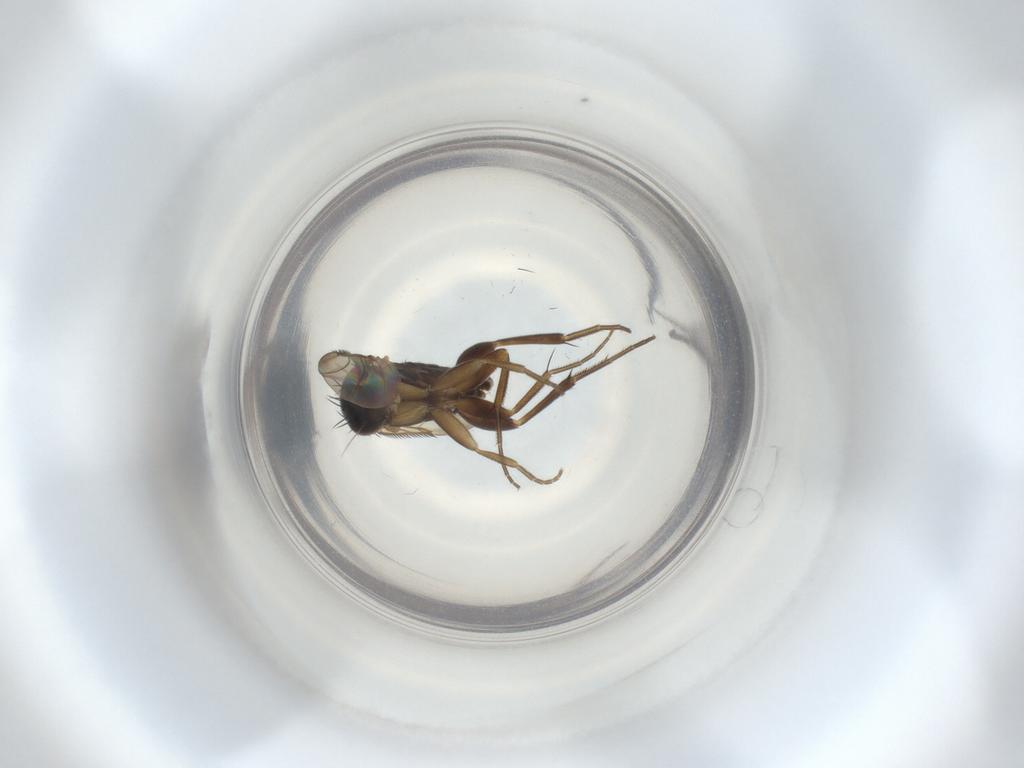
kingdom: Animalia
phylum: Arthropoda
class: Insecta
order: Diptera
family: Phoridae
